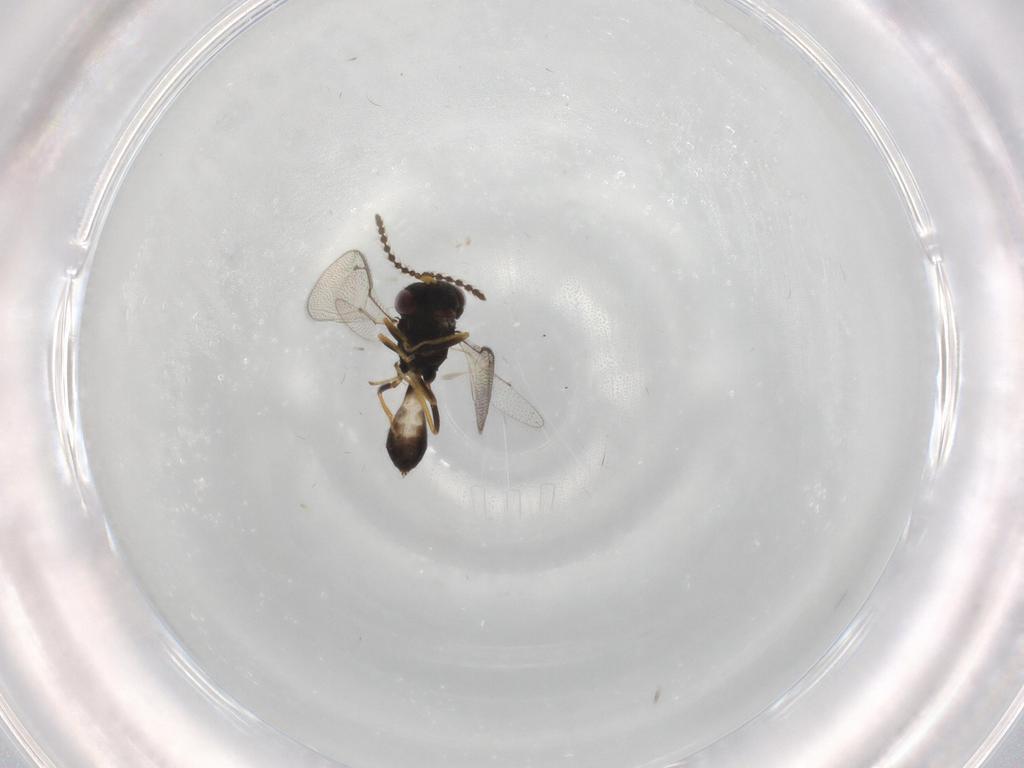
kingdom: Animalia
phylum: Arthropoda
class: Insecta
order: Hymenoptera
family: Pteromalidae
